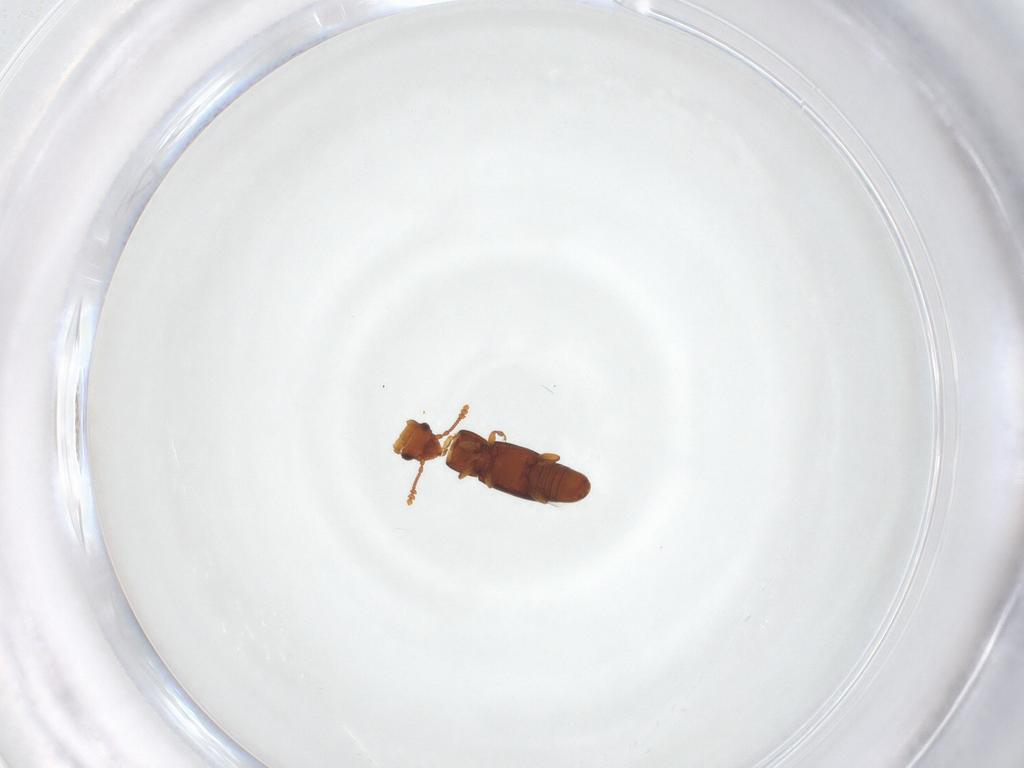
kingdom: Animalia
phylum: Arthropoda
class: Insecta
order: Coleoptera
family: Smicripidae
